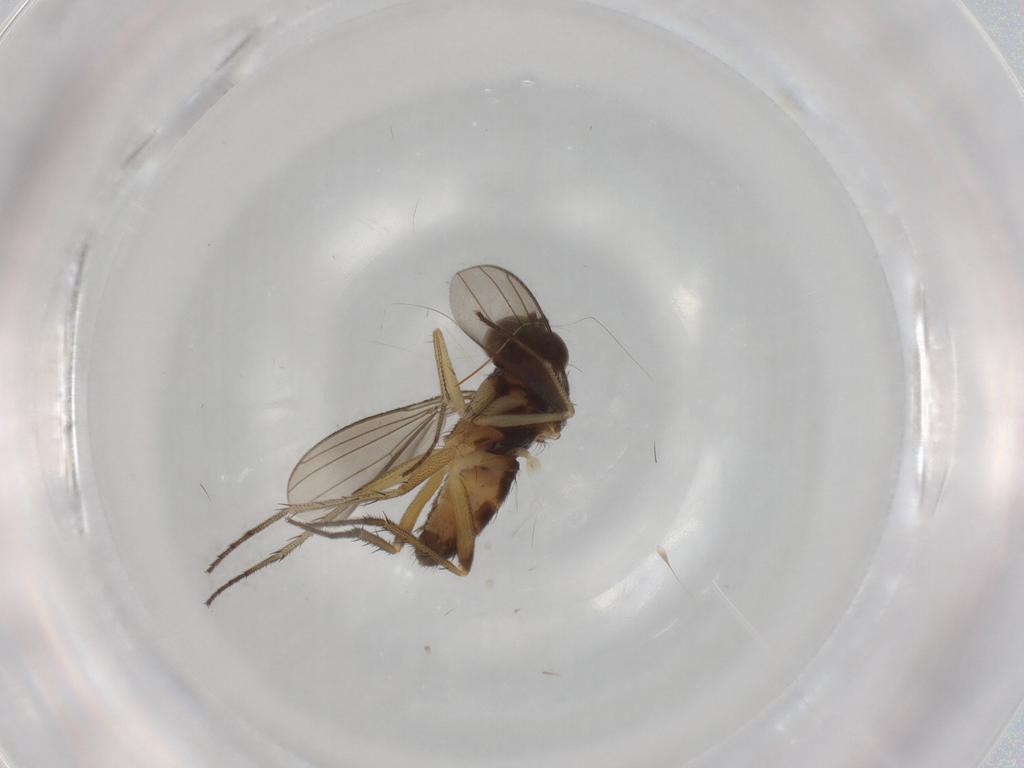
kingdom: Animalia
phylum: Arthropoda
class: Insecta
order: Diptera
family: Dolichopodidae
